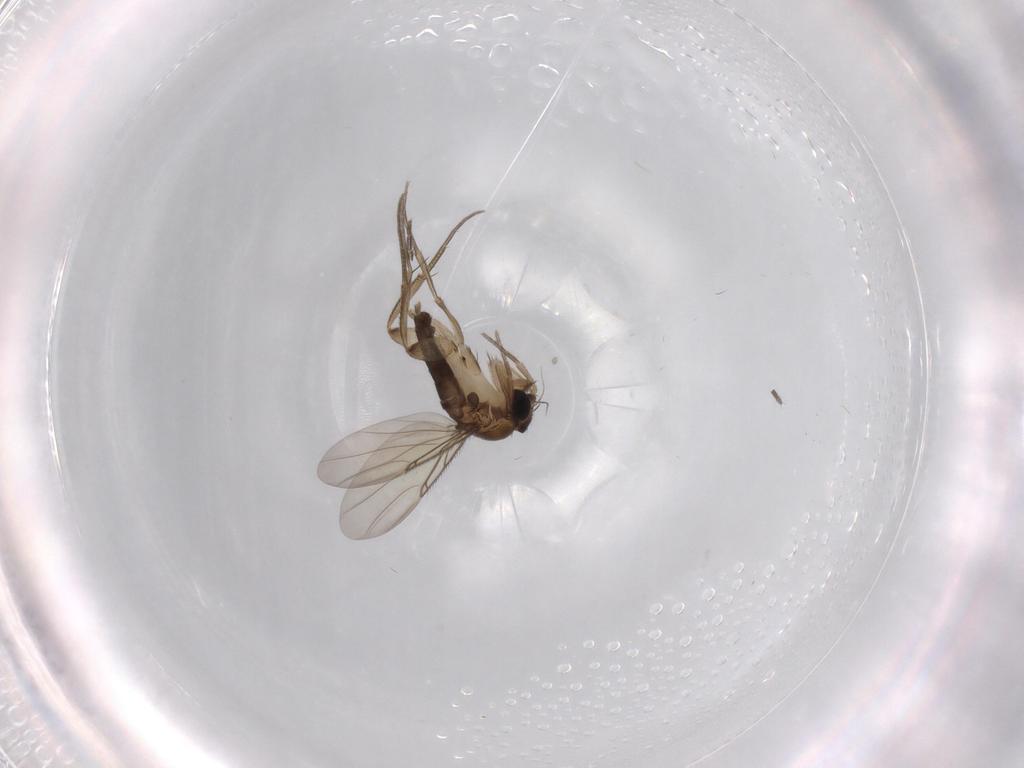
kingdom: Animalia
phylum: Arthropoda
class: Insecta
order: Diptera
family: Phoridae
